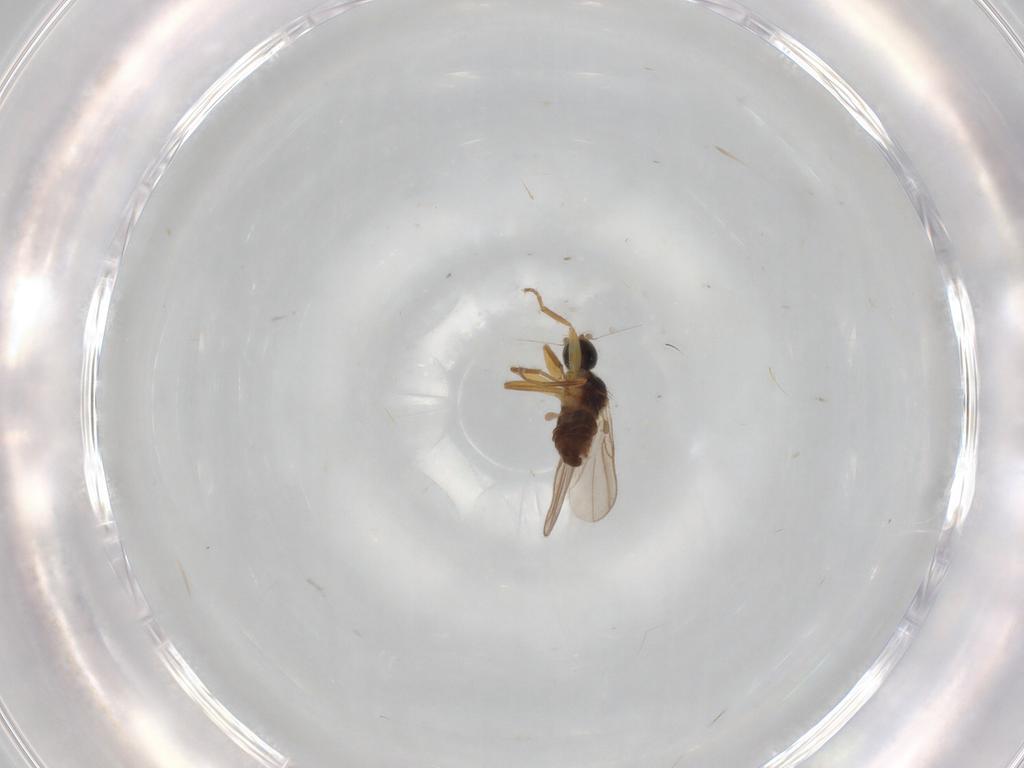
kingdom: Animalia
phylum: Arthropoda
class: Insecta
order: Diptera
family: Hybotidae
